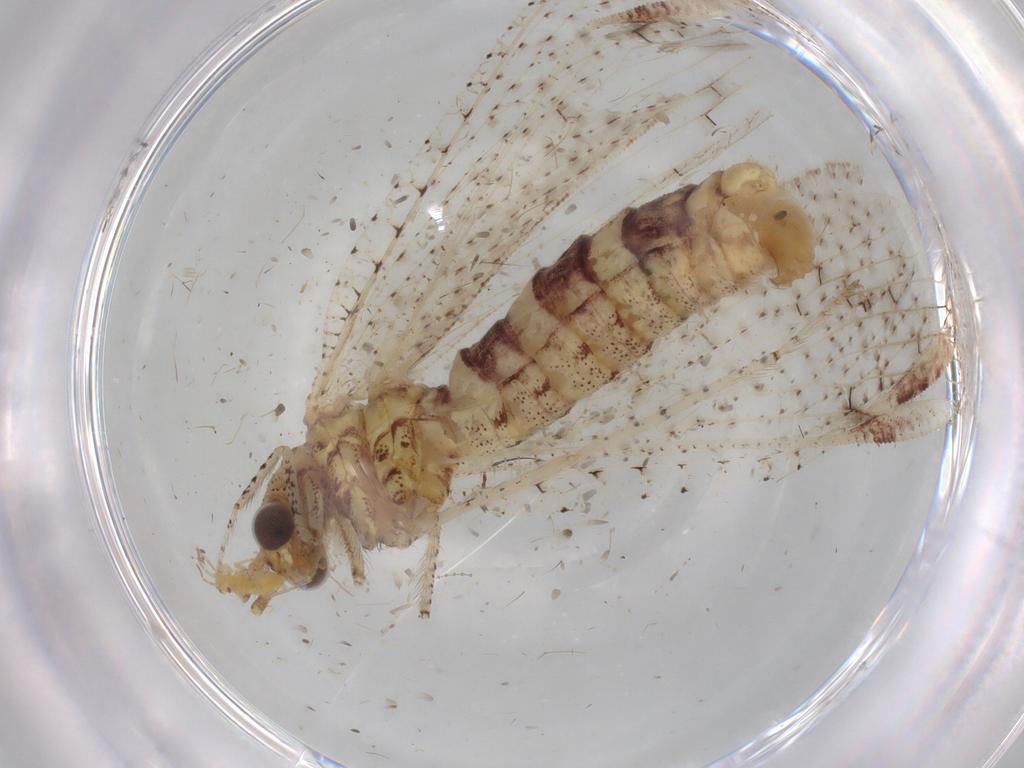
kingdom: Animalia
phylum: Arthropoda
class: Insecta
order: Neuroptera
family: Berothidae
